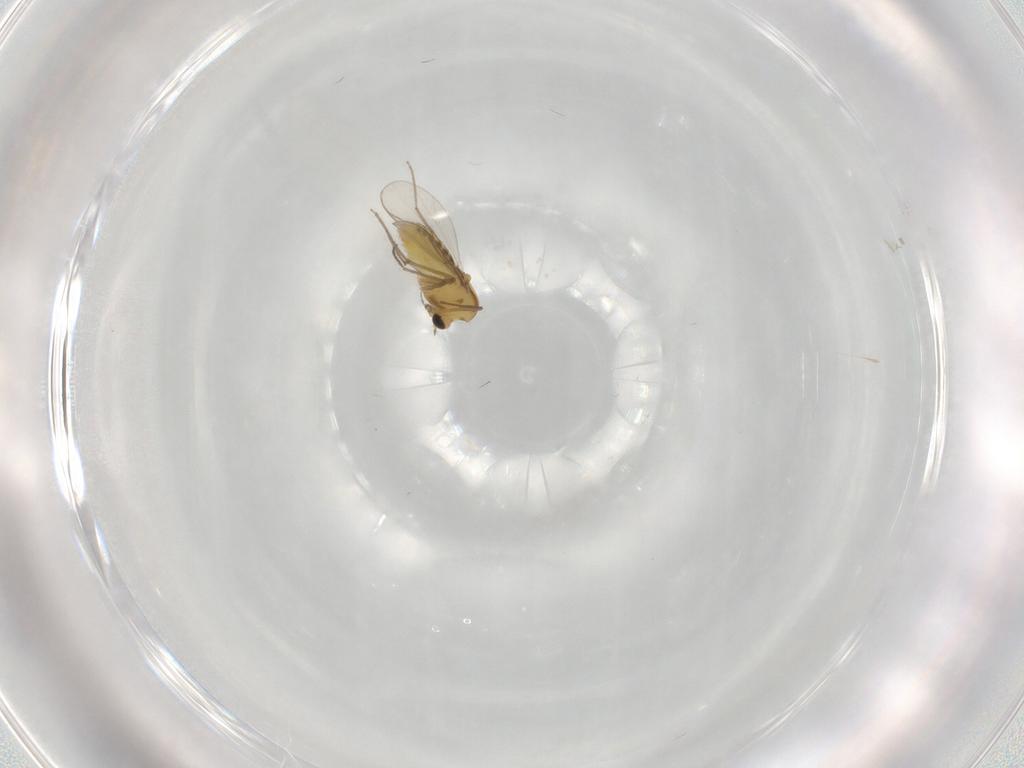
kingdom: Animalia
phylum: Arthropoda
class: Insecta
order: Diptera
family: Chironomidae
